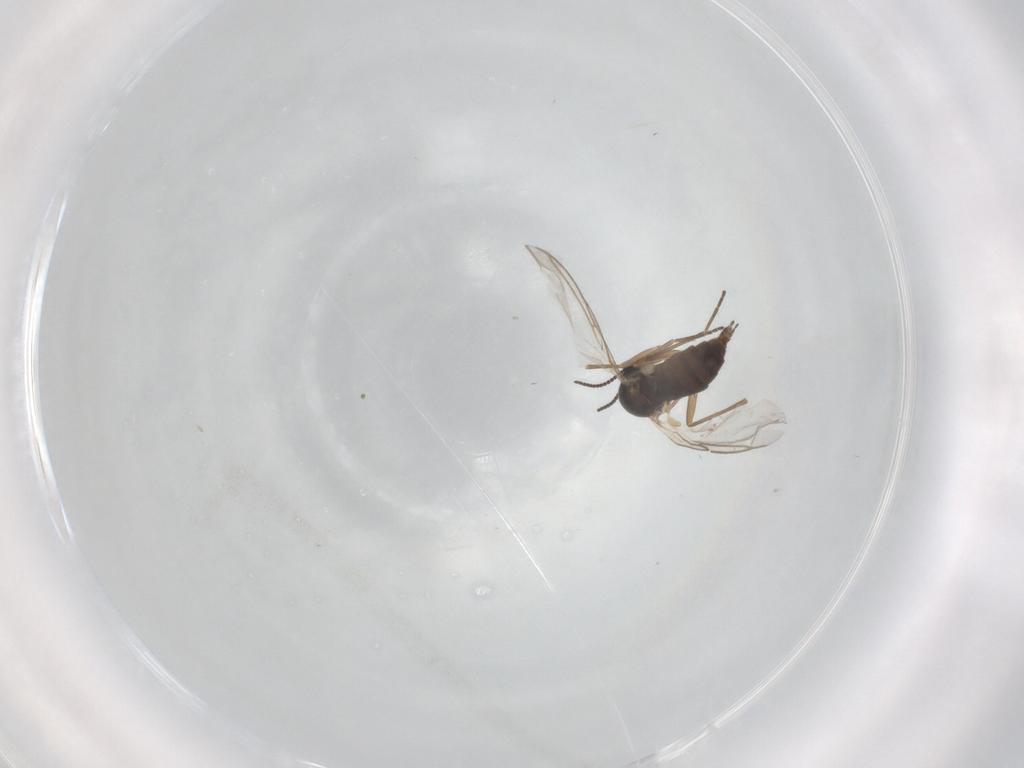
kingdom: Animalia
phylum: Arthropoda
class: Insecta
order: Diptera
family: Sciaridae
